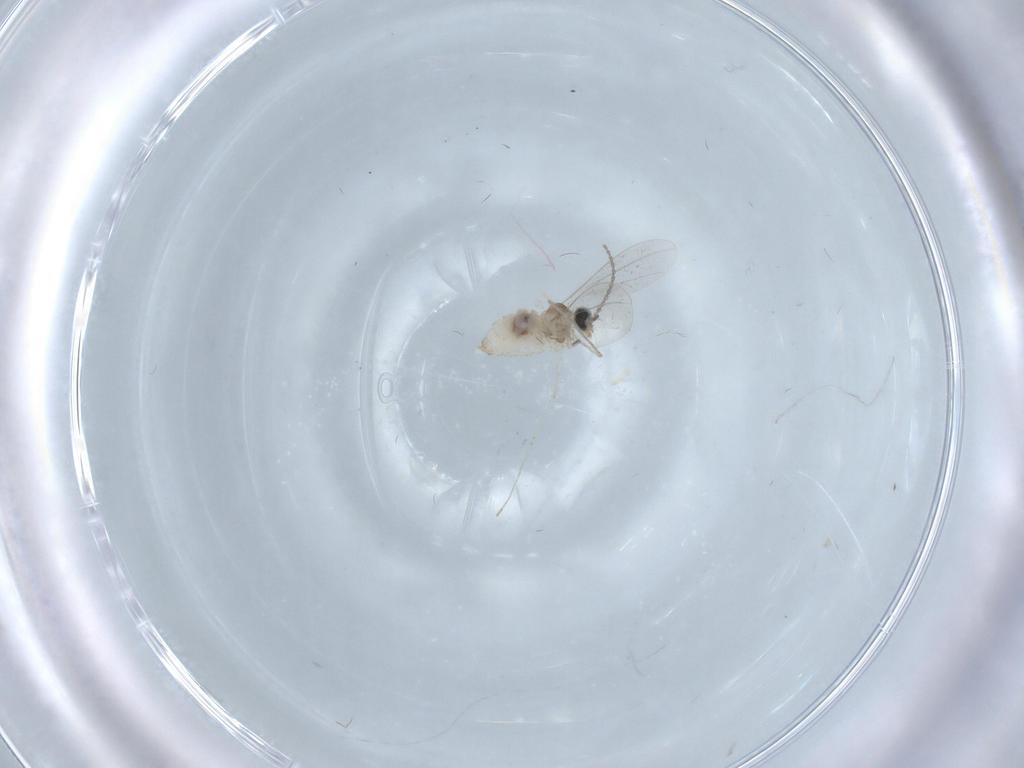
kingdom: Animalia
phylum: Arthropoda
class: Insecta
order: Diptera
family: Cecidomyiidae
